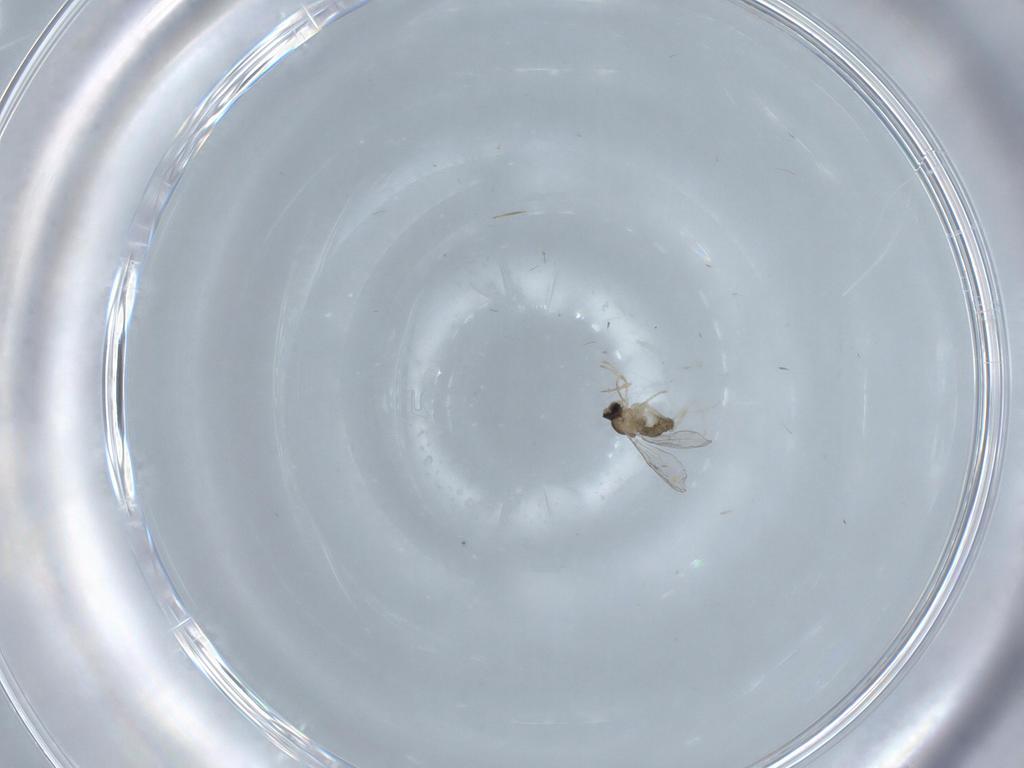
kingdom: Animalia
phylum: Arthropoda
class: Insecta
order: Diptera
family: Cecidomyiidae
